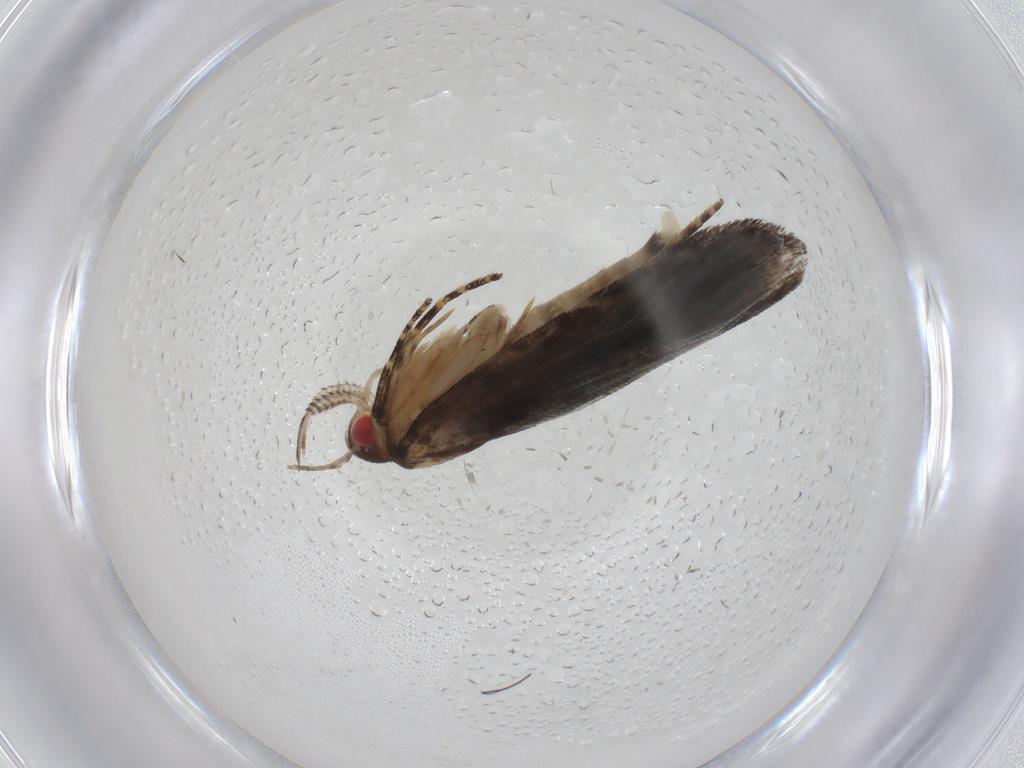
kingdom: Animalia
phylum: Arthropoda
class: Insecta
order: Lepidoptera
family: Gelechiidae
